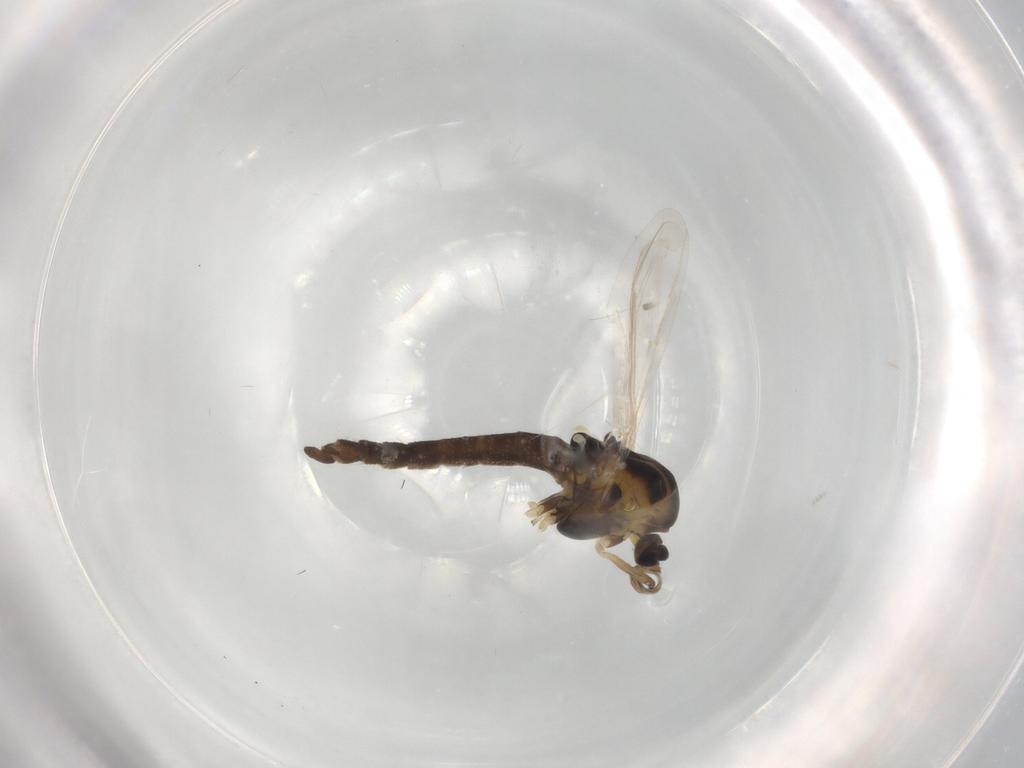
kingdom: Animalia
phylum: Arthropoda
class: Insecta
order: Diptera
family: Chironomidae
